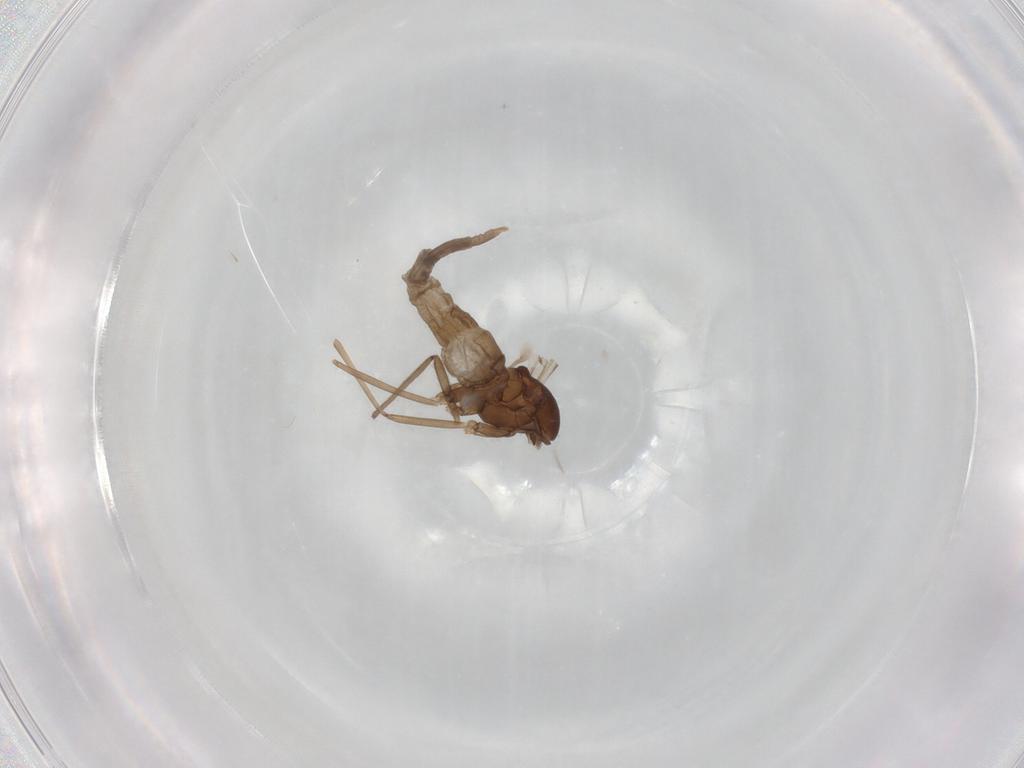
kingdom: Animalia
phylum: Arthropoda
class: Insecta
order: Diptera
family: Cecidomyiidae
